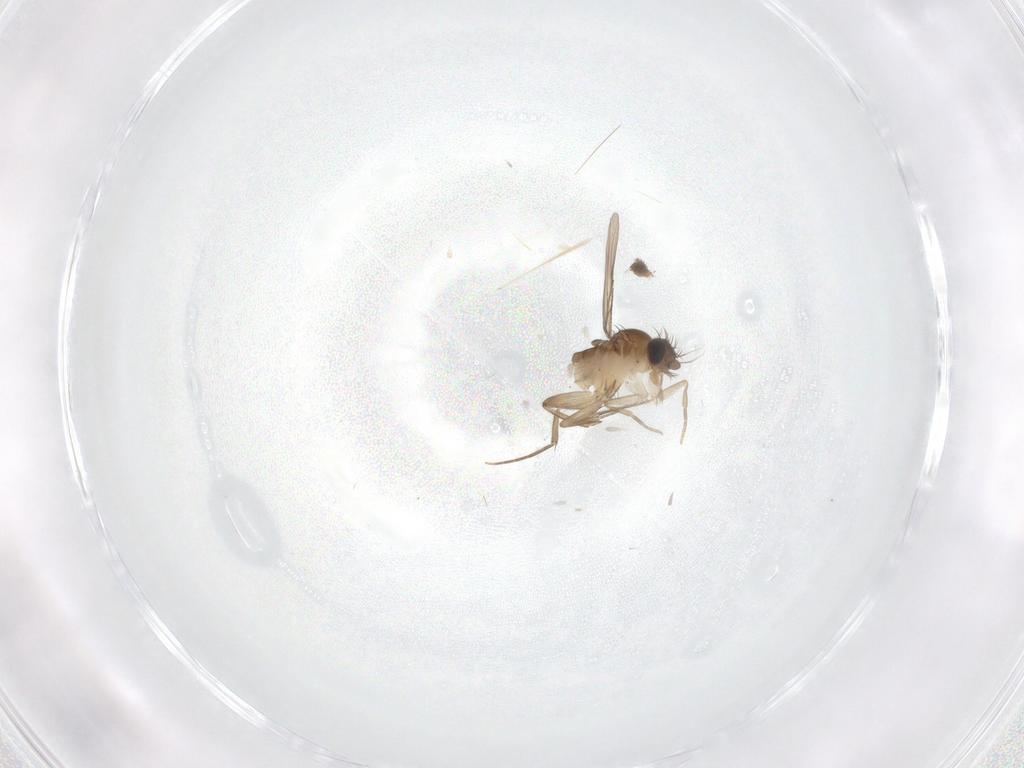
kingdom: Animalia
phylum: Arthropoda
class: Insecta
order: Diptera
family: Phoridae
